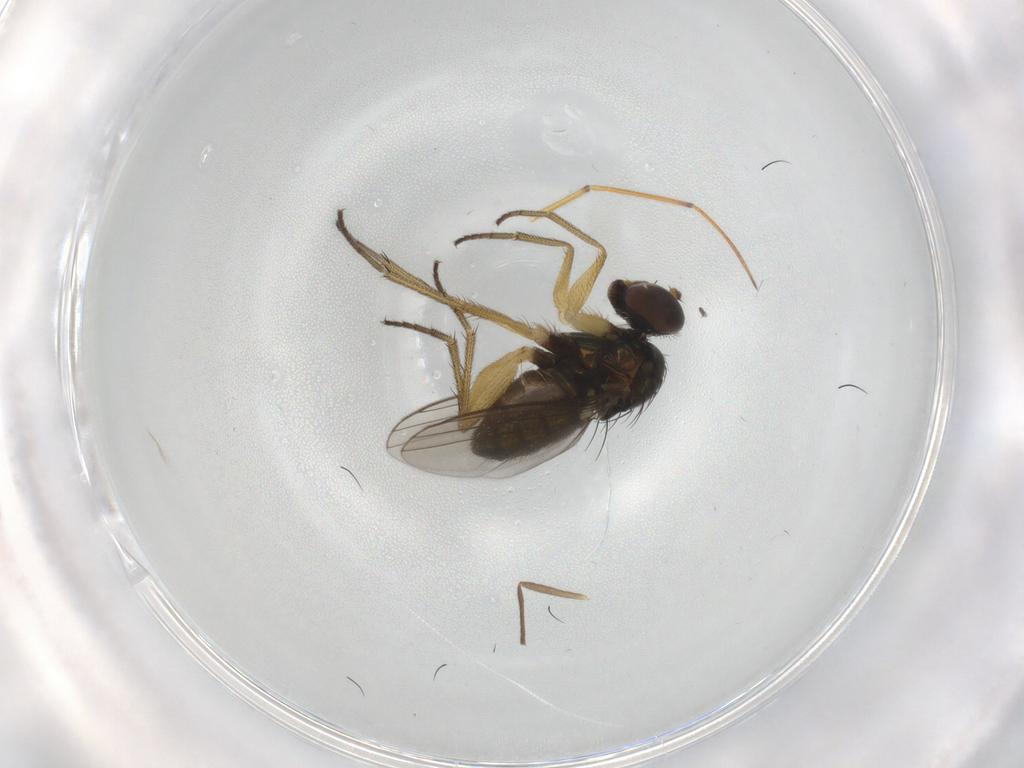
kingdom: Animalia
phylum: Arthropoda
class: Insecta
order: Diptera
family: Chironomidae
